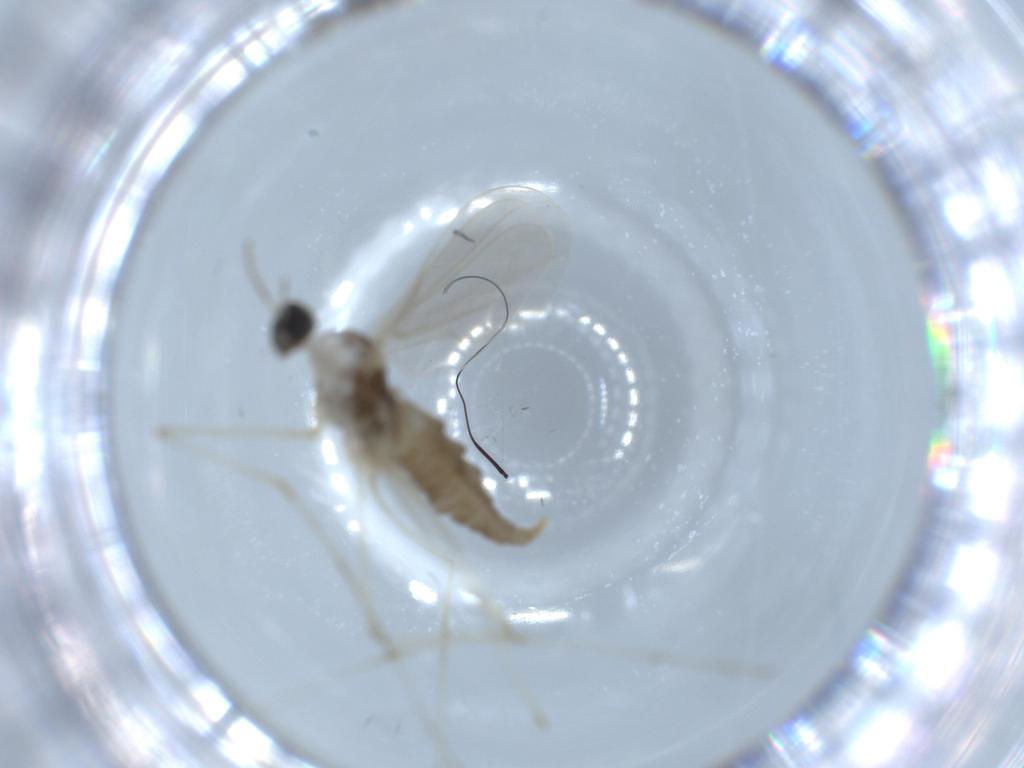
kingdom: Animalia
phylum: Arthropoda
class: Insecta
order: Diptera
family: Cecidomyiidae
